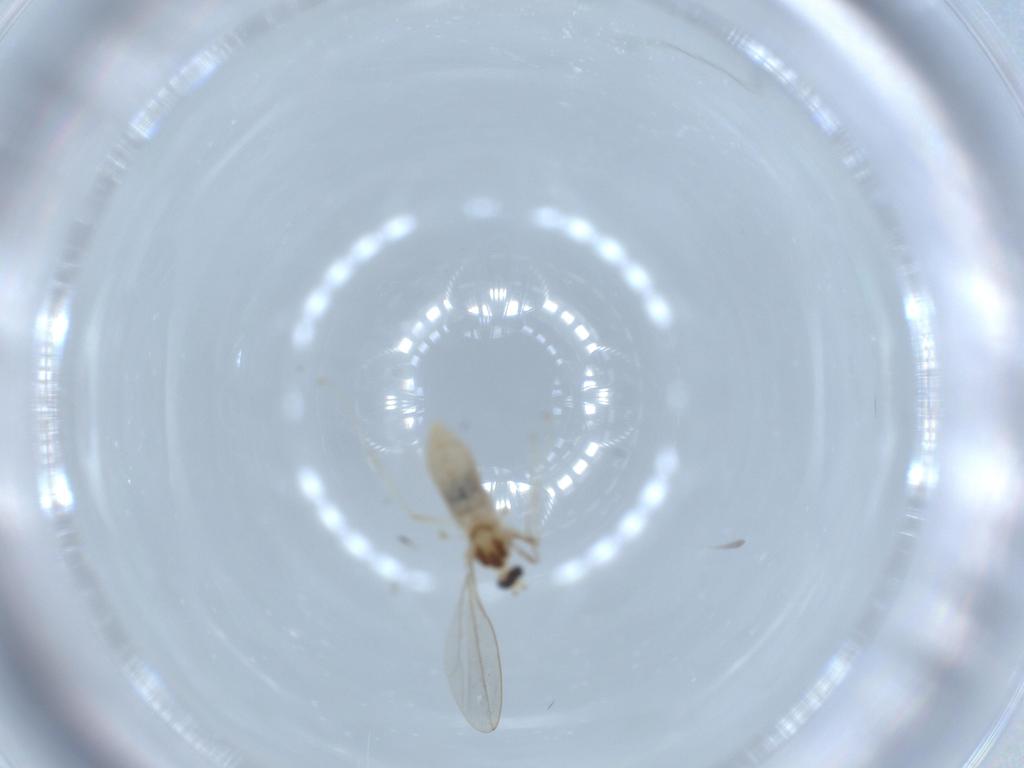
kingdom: Animalia
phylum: Arthropoda
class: Insecta
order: Diptera
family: Cecidomyiidae
